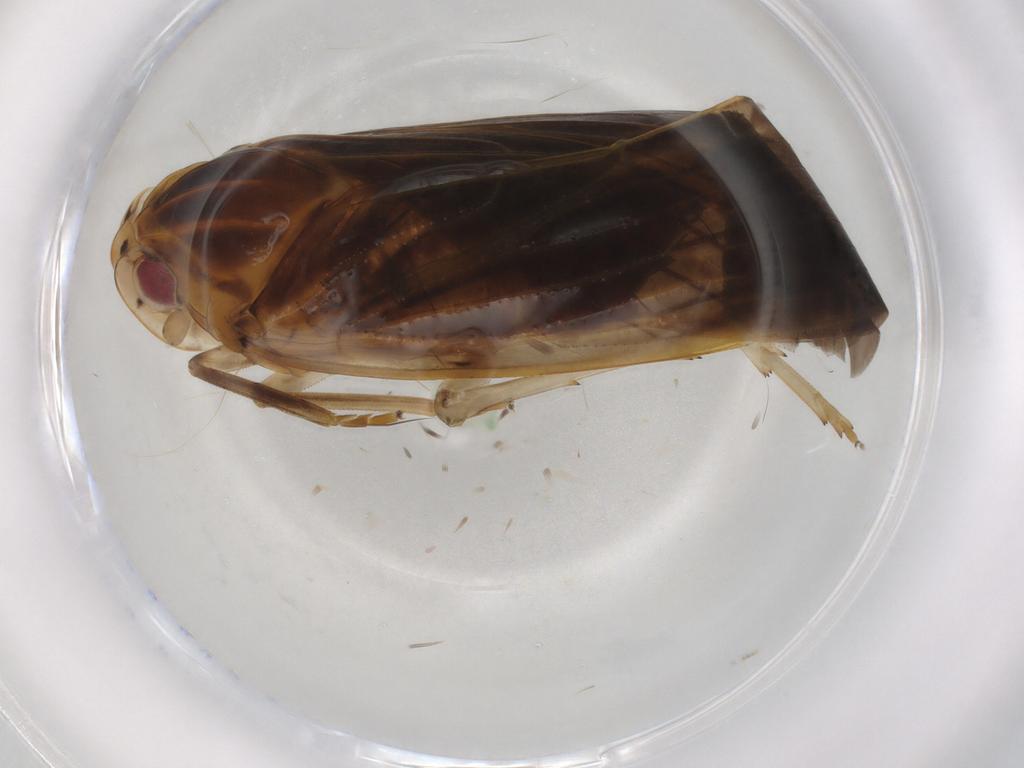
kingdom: Animalia
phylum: Arthropoda
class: Insecta
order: Hemiptera
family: Achilidae
